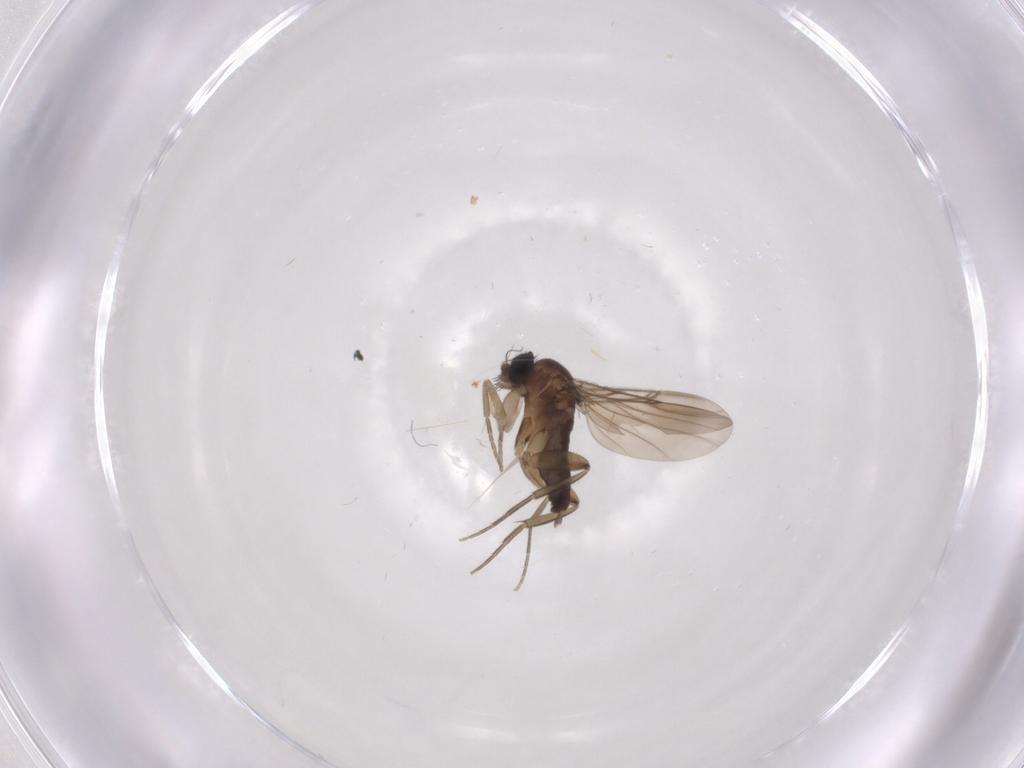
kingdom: Animalia
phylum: Arthropoda
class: Insecta
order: Diptera
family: Phoridae
